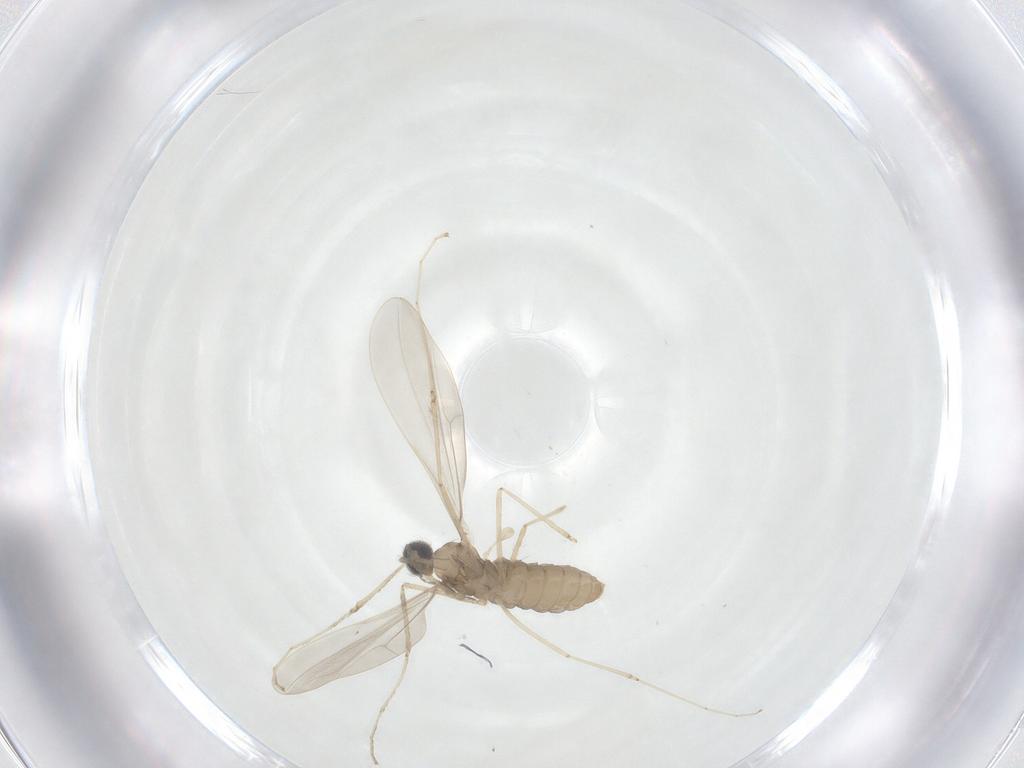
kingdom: Animalia
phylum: Arthropoda
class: Insecta
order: Diptera
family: Cecidomyiidae
